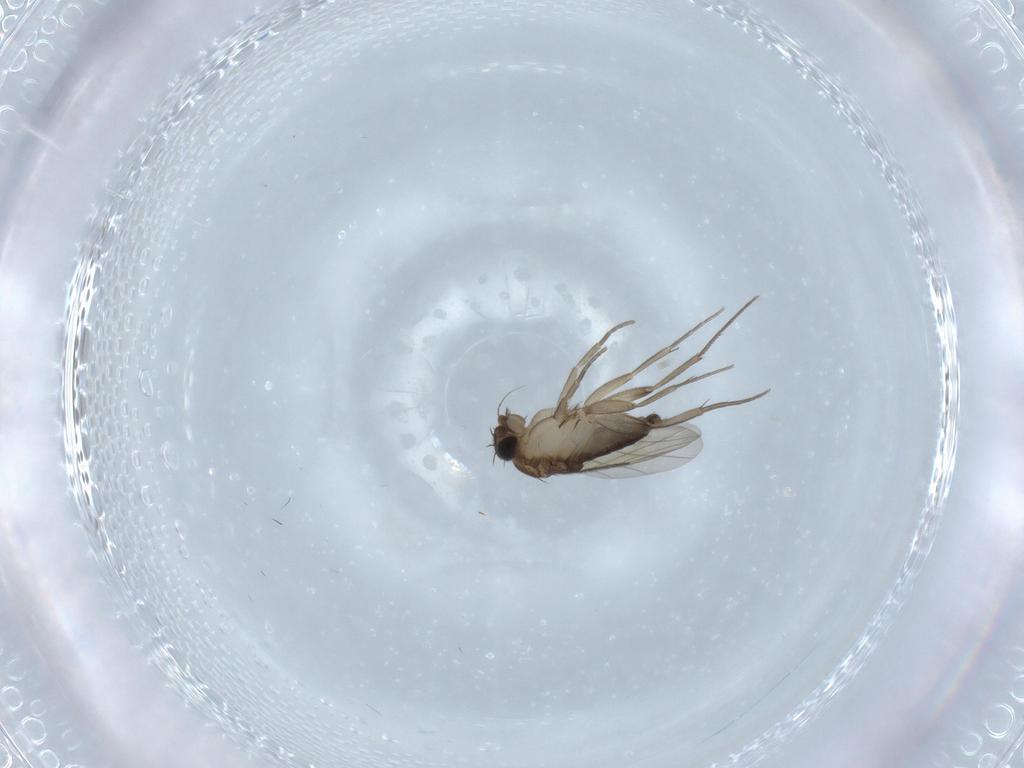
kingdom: Animalia
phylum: Arthropoda
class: Insecta
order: Diptera
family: Phoridae
